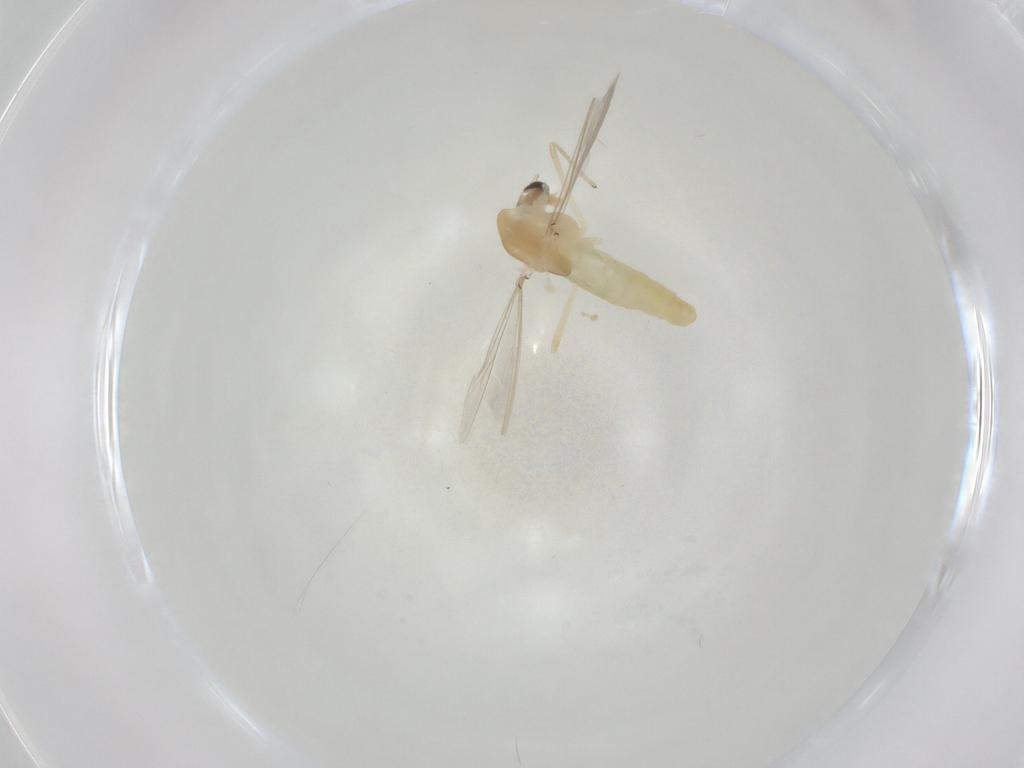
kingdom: Animalia
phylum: Arthropoda
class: Insecta
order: Diptera
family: Chironomidae
